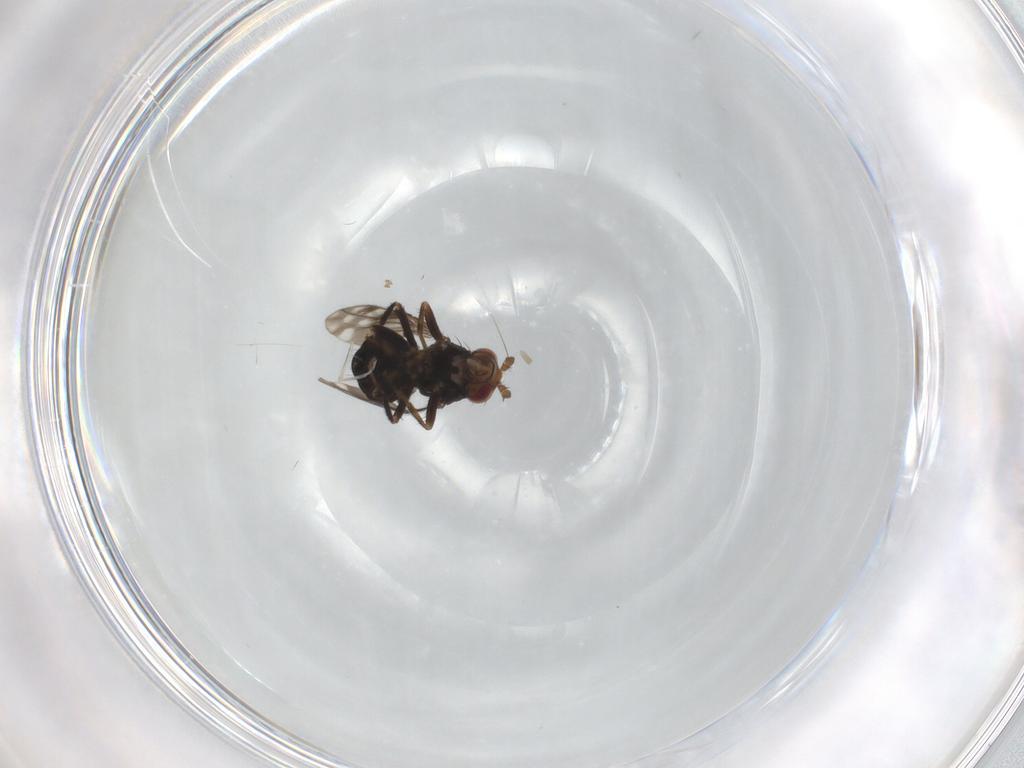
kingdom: Animalia
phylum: Arthropoda
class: Insecta
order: Diptera
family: Sphaeroceridae
